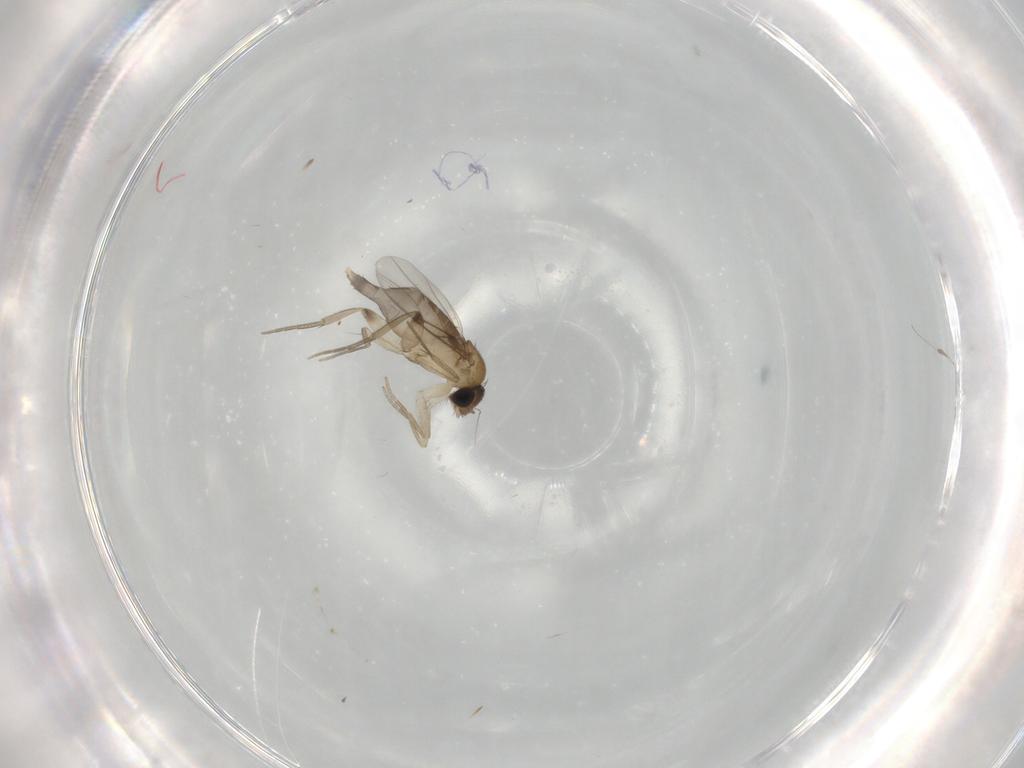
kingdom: Animalia
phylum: Arthropoda
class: Insecta
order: Diptera
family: Phoridae
